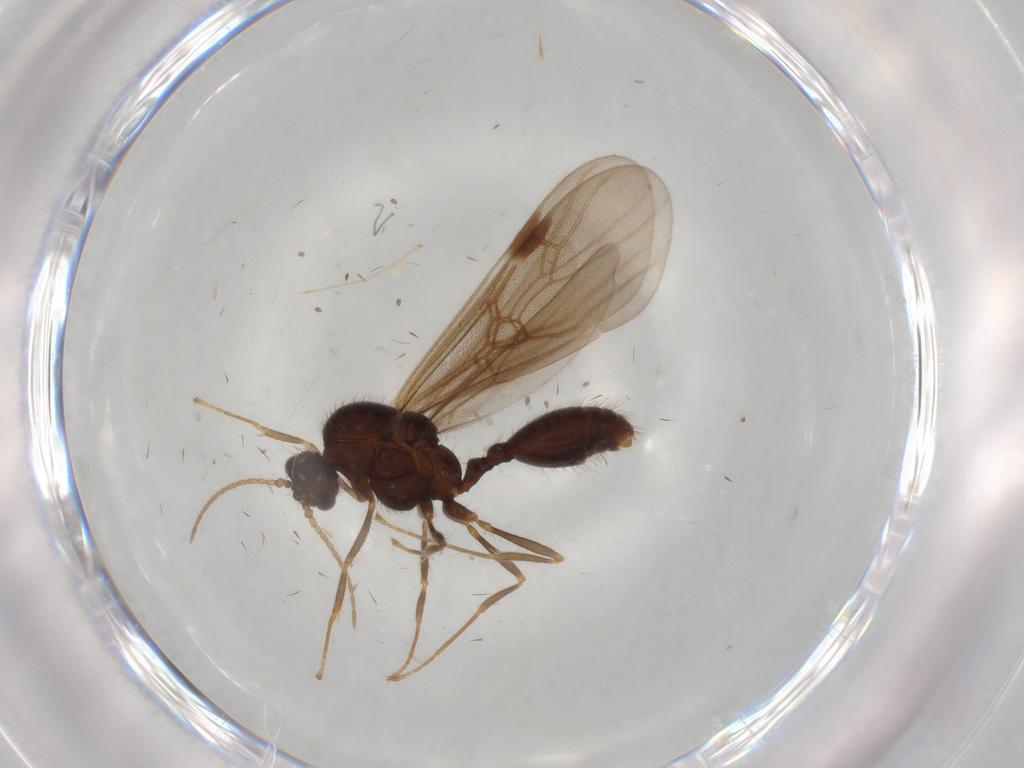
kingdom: Animalia
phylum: Arthropoda
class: Insecta
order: Hymenoptera
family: Formicidae
